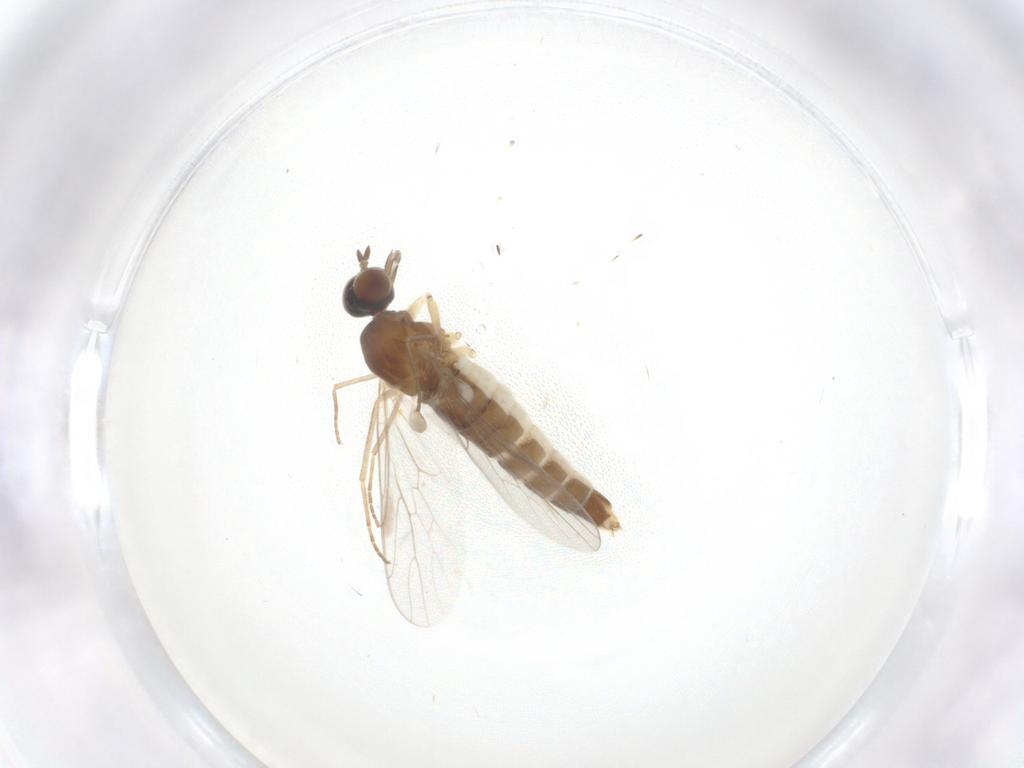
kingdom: Animalia
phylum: Arthropoda
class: Insecta
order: Diptera
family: Scenopinidae
